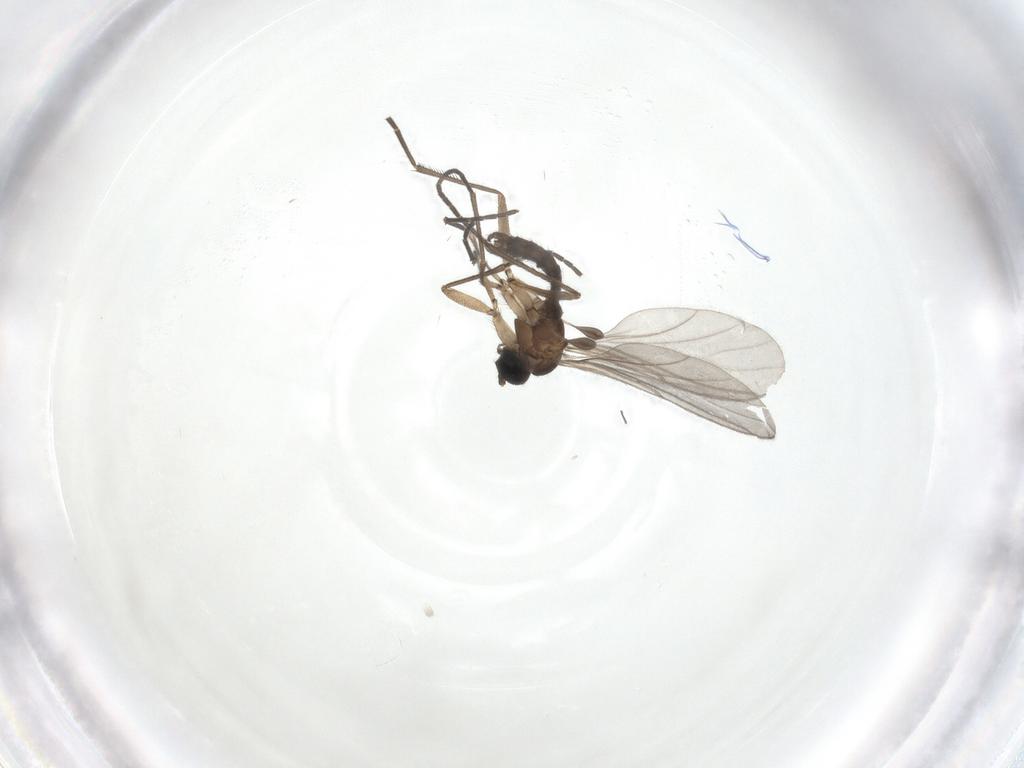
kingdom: Animalia
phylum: Arthropoda
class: Insecta
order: Diptera
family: Sciaridae
